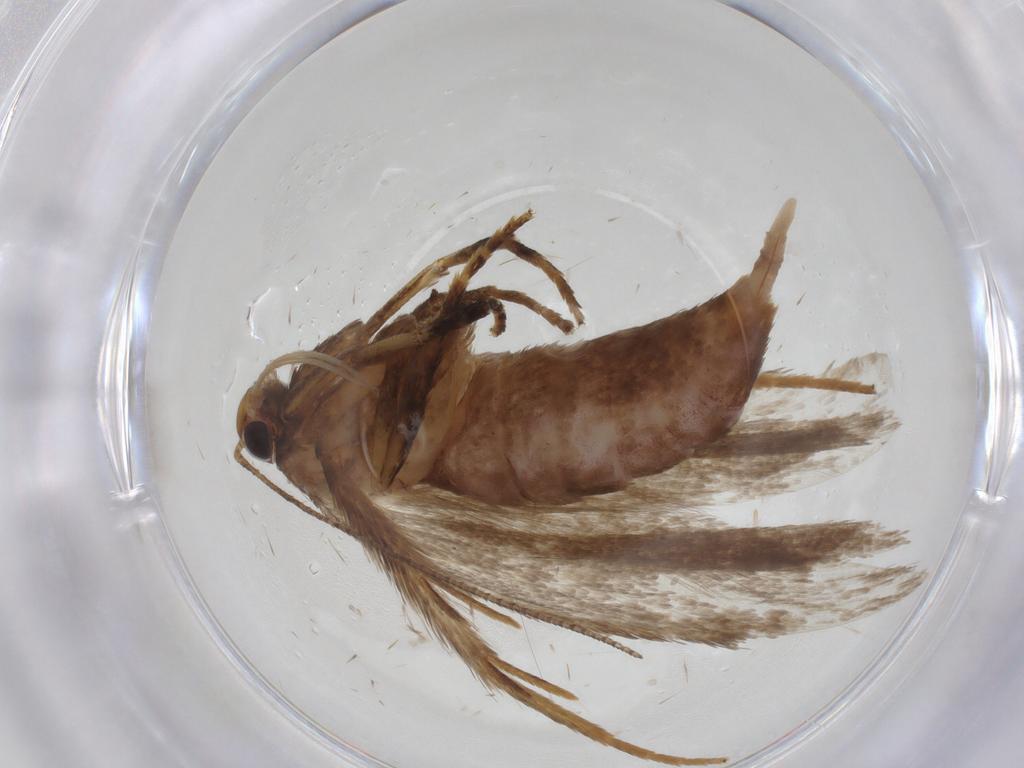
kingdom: Animalia
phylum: Arthropoda
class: Insecta
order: Lepidoptera
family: Gelechiidae
